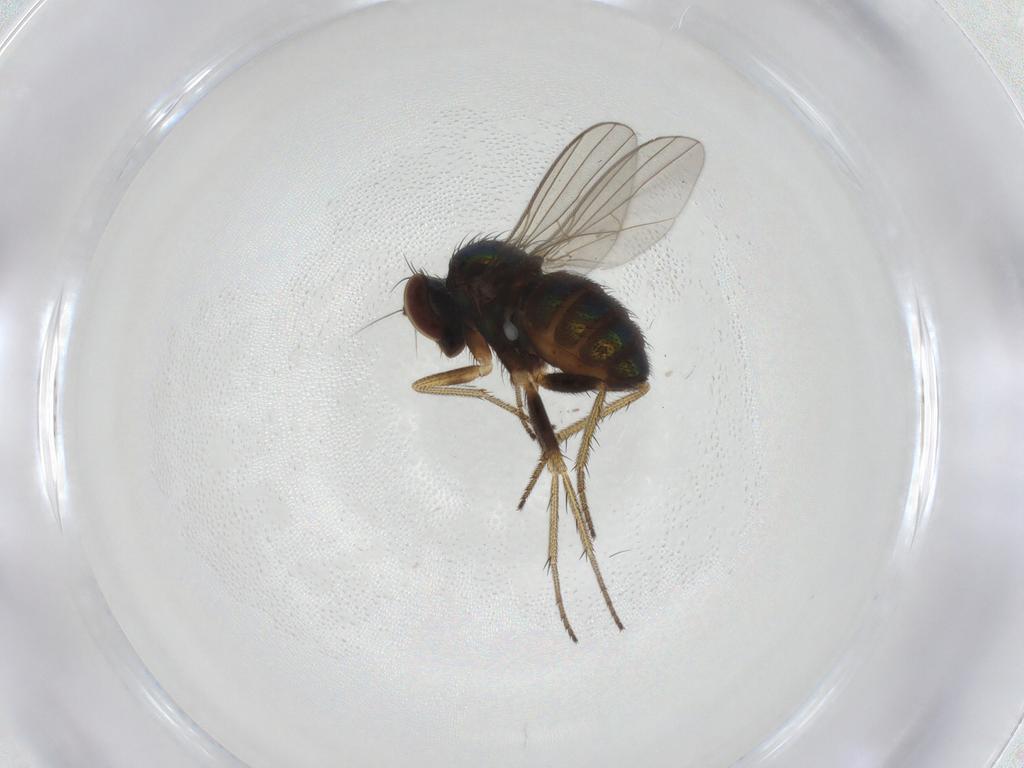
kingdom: Animalia
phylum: Arthropoda
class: Insecta
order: Diptera
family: Dolichopodidae
